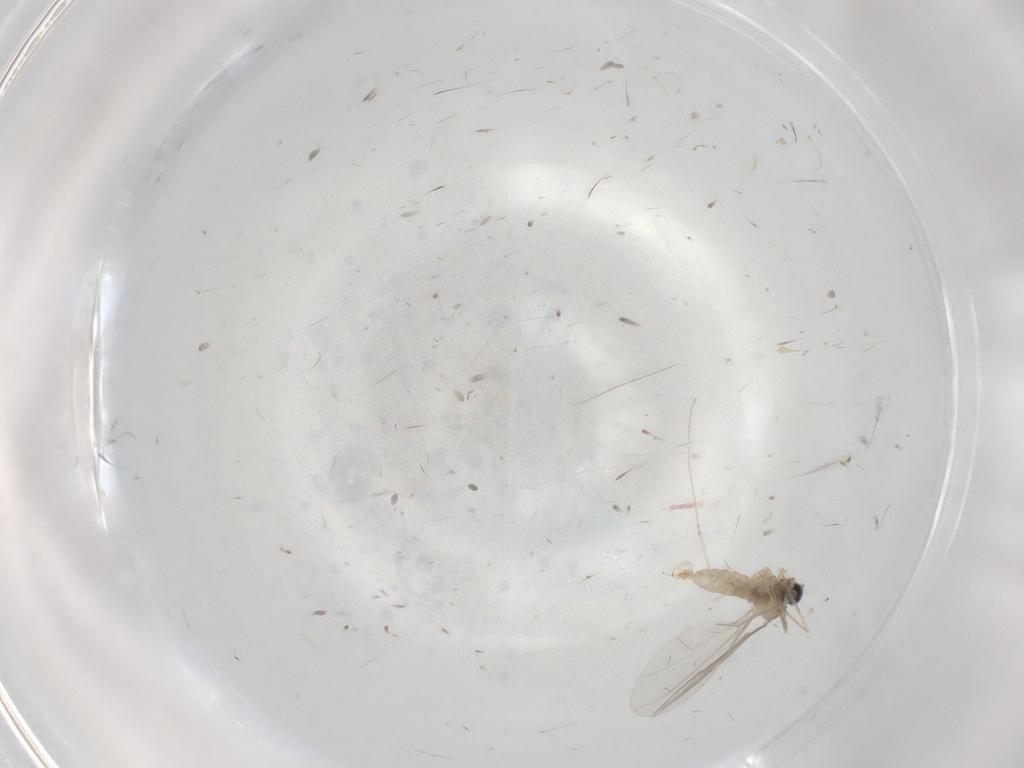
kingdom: Animalia
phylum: Arthropoda
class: Insecta
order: Diptera
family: Cecidomyiidae
